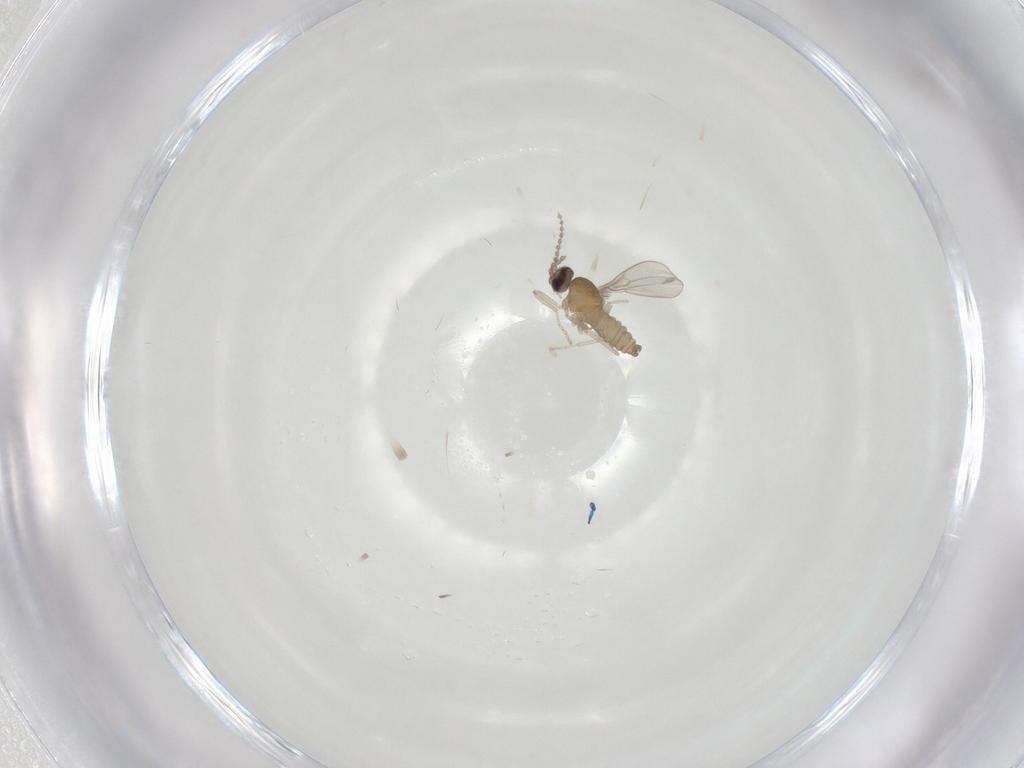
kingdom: Animalia
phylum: Arthropoda
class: Insecta
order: Diptera
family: Cecidomyiidae
